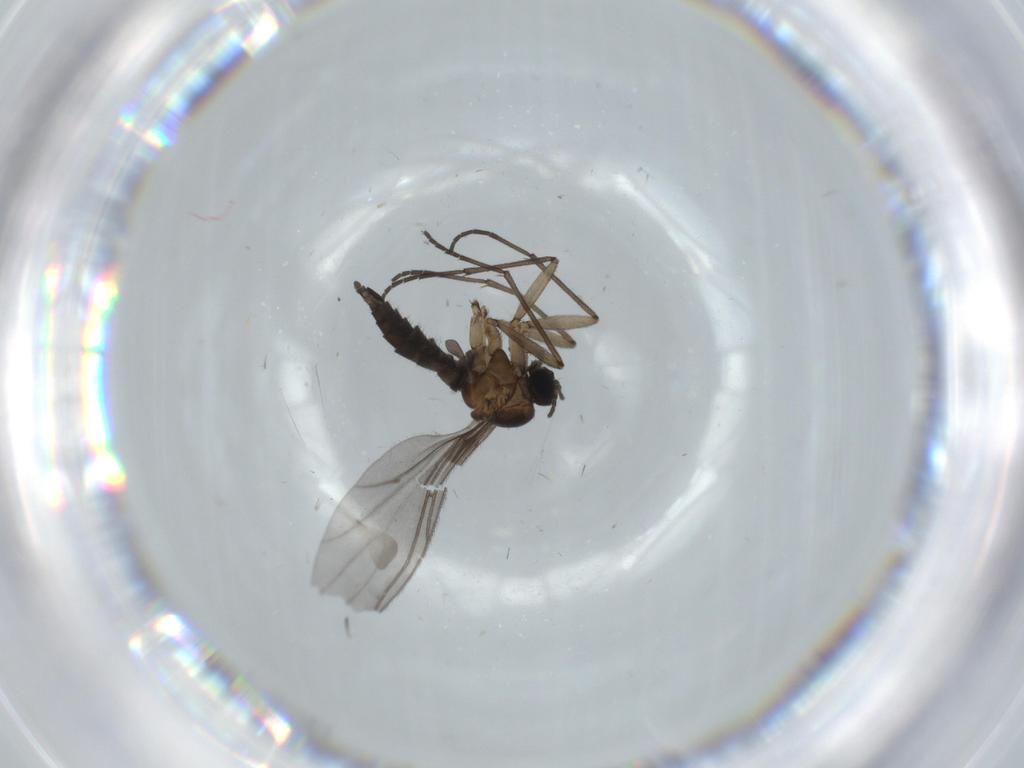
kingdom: Animalia
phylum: Arthropoda
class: Insecta
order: Diptera
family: Sciaridae
